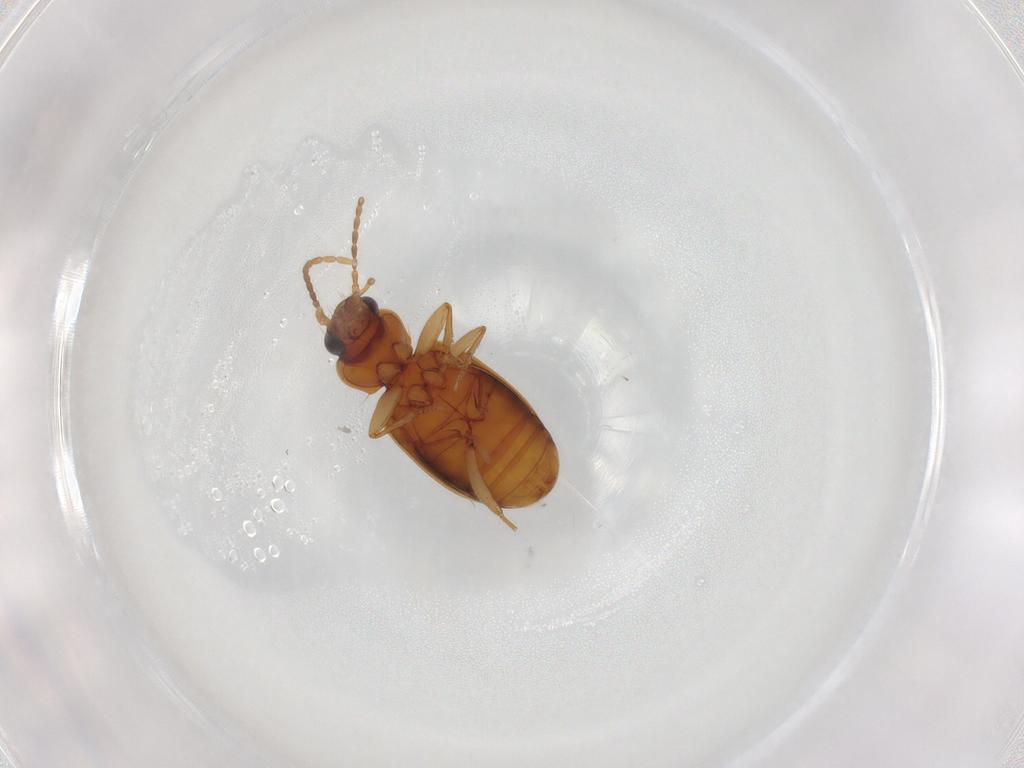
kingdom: Animalia
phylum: Arthropoda
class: Insecta
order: Coleoptera
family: Carabidae
